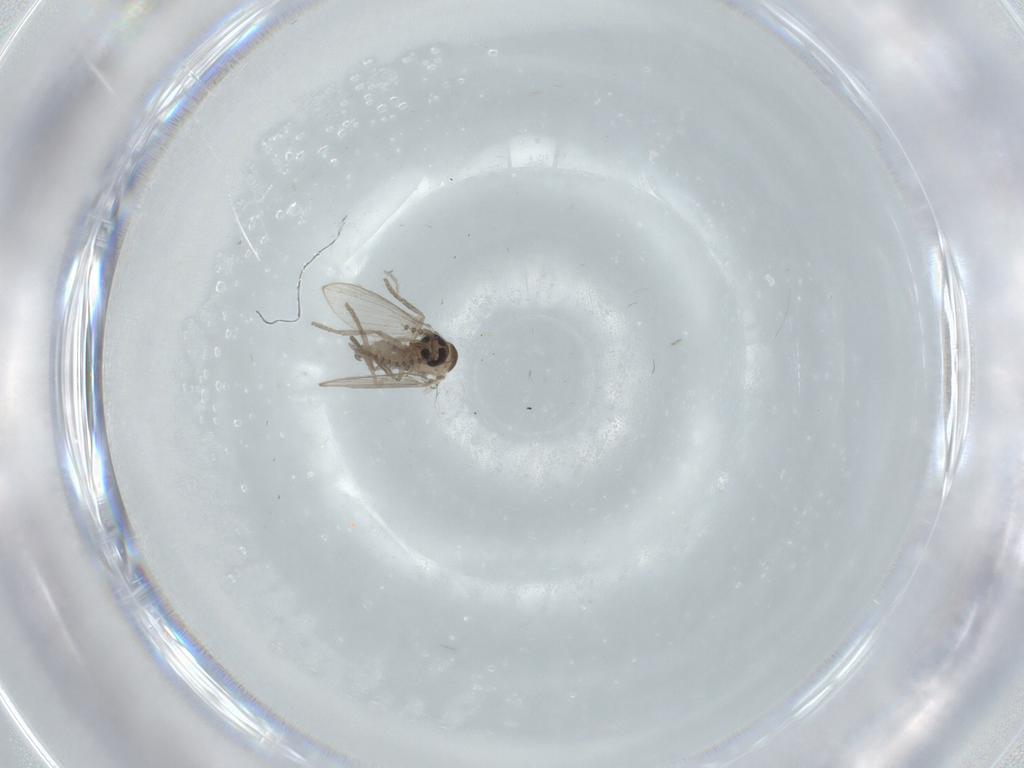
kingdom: Animalia
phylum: Arthropoda
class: Insecta
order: Diptera
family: Psychodidae
